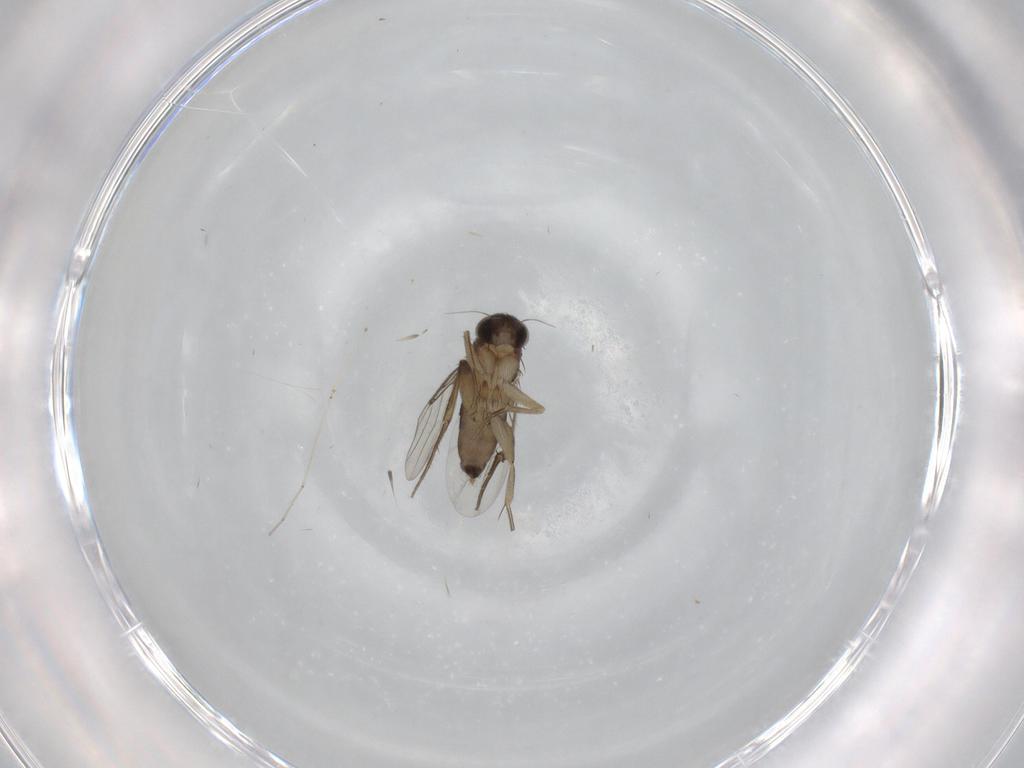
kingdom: Animalia
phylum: Arthropoda
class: Insecta
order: Diptera
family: Phoridae
